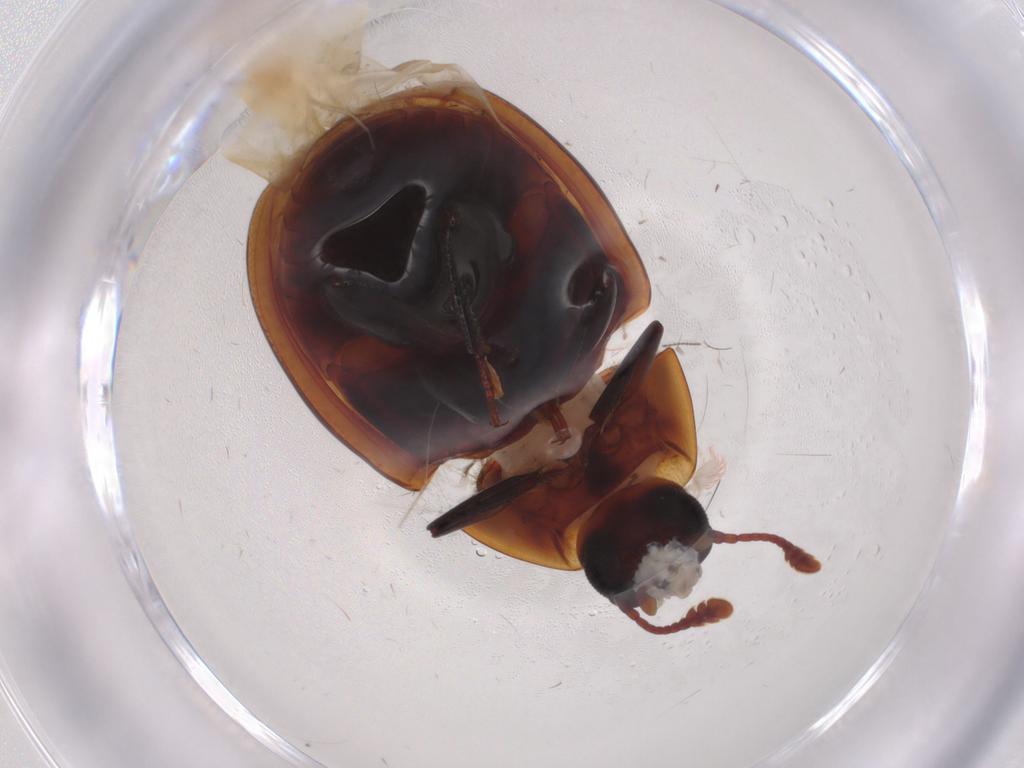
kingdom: Animalia
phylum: Arthropoda
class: Insecta
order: Coleoptera
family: Zopheridae
